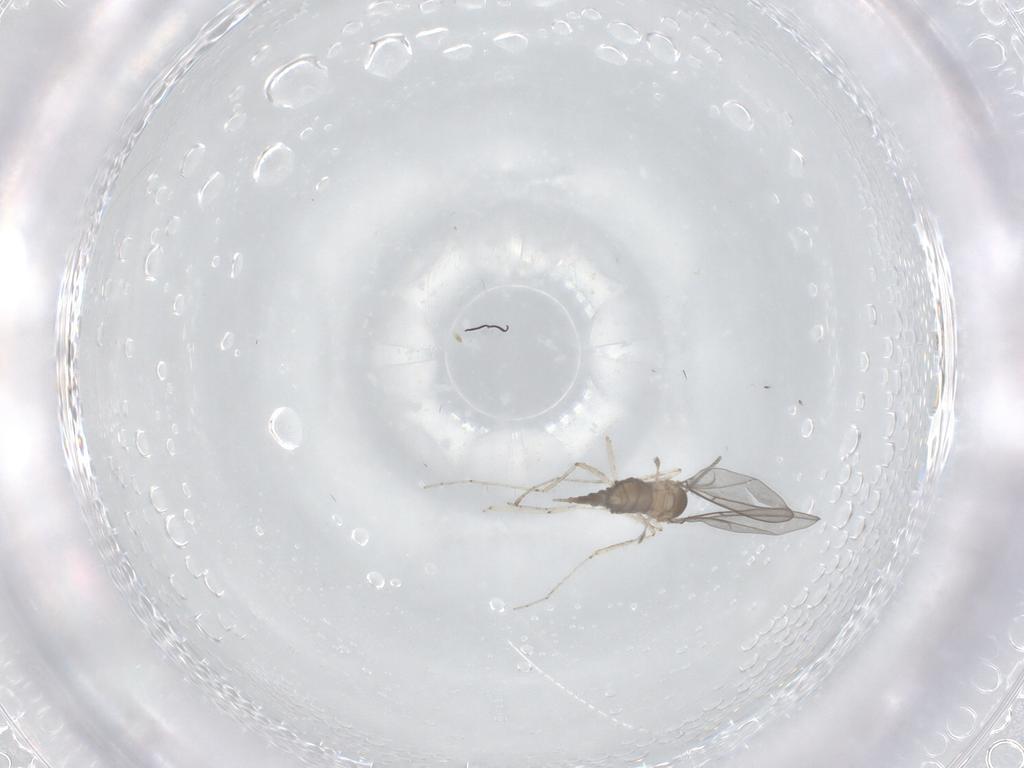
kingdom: Animalia
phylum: Arthropoda
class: Insecta
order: Diptera
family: Cecidomyiidae
